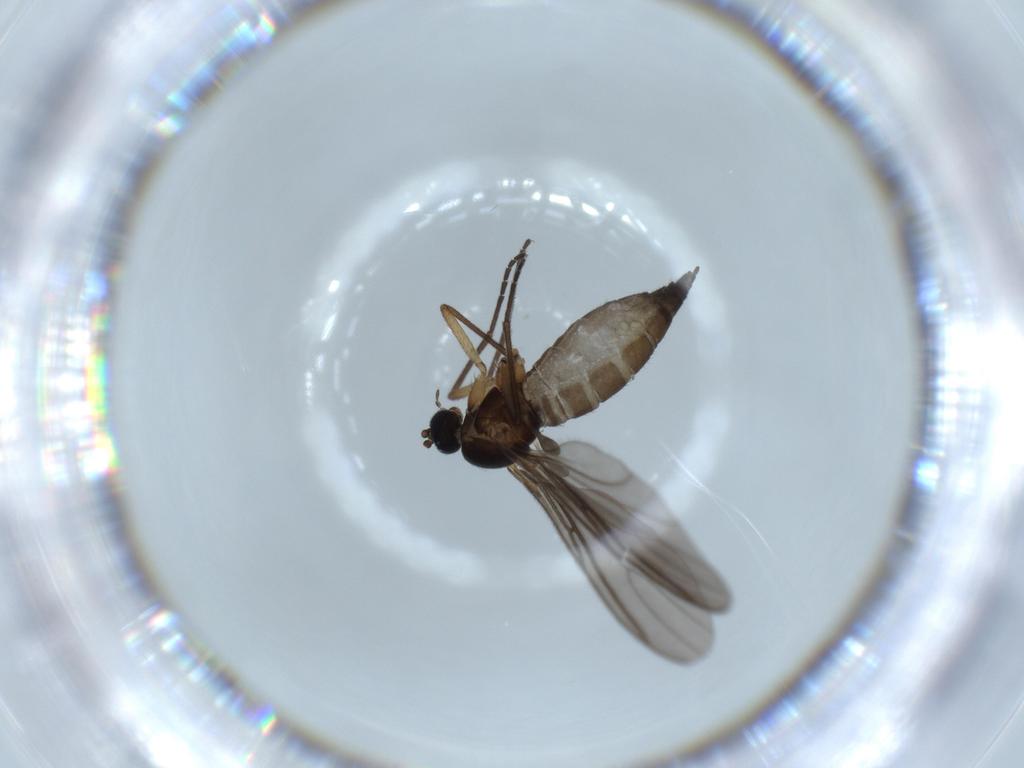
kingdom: Animalia
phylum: Arthropoda
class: Insecta
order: Diptera
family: Sciaridae
